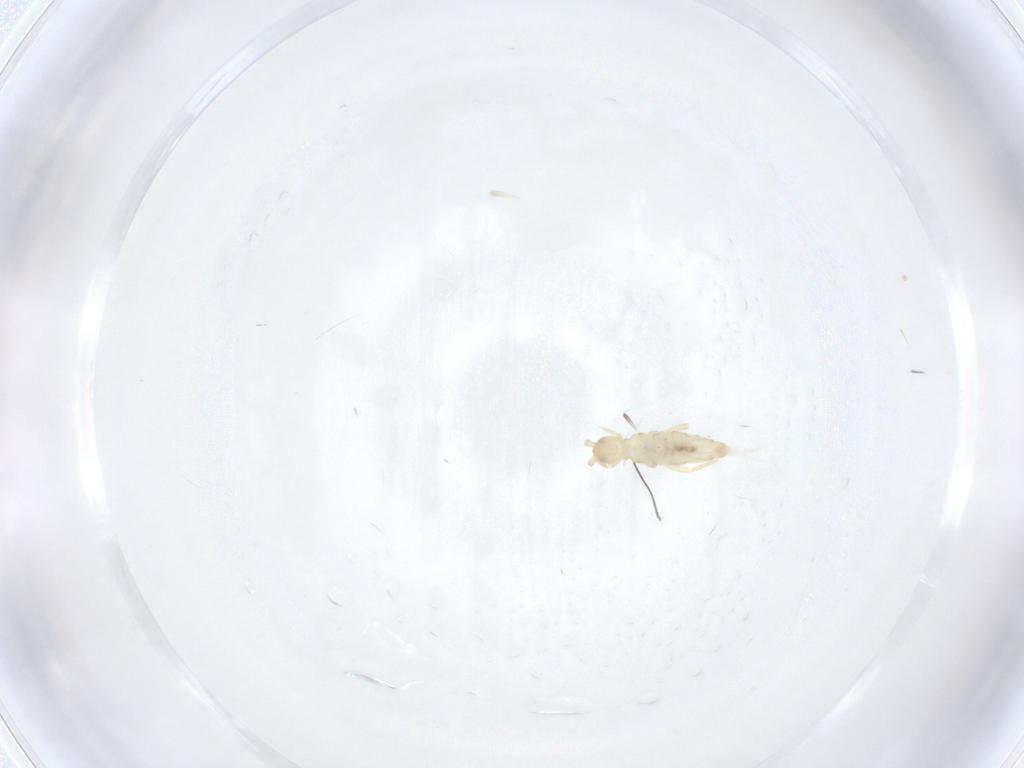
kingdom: Animalia
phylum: Arthropoda
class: Collembola
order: Entomobryomorpha
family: Entomobryidae
